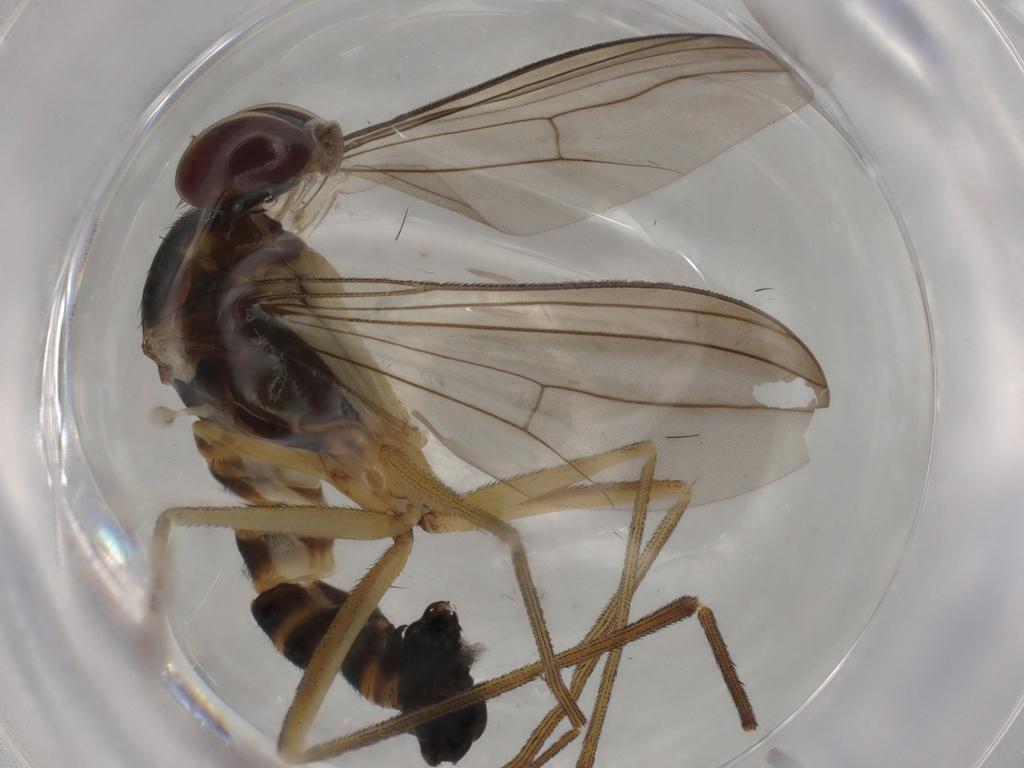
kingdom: Animalia
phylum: Arthropoda
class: Insecta
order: Diptera
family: Dolichopodidae
